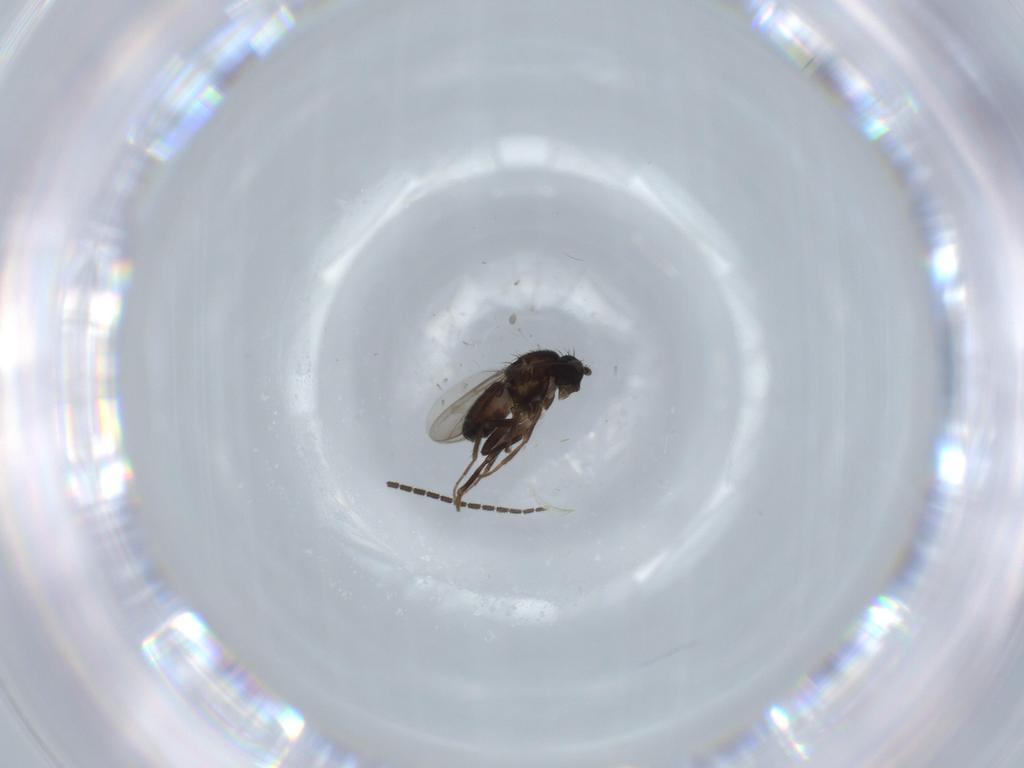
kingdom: Animalia
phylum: Arthropoda
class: Insecta
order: Diptera
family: Sphaeroceridae
